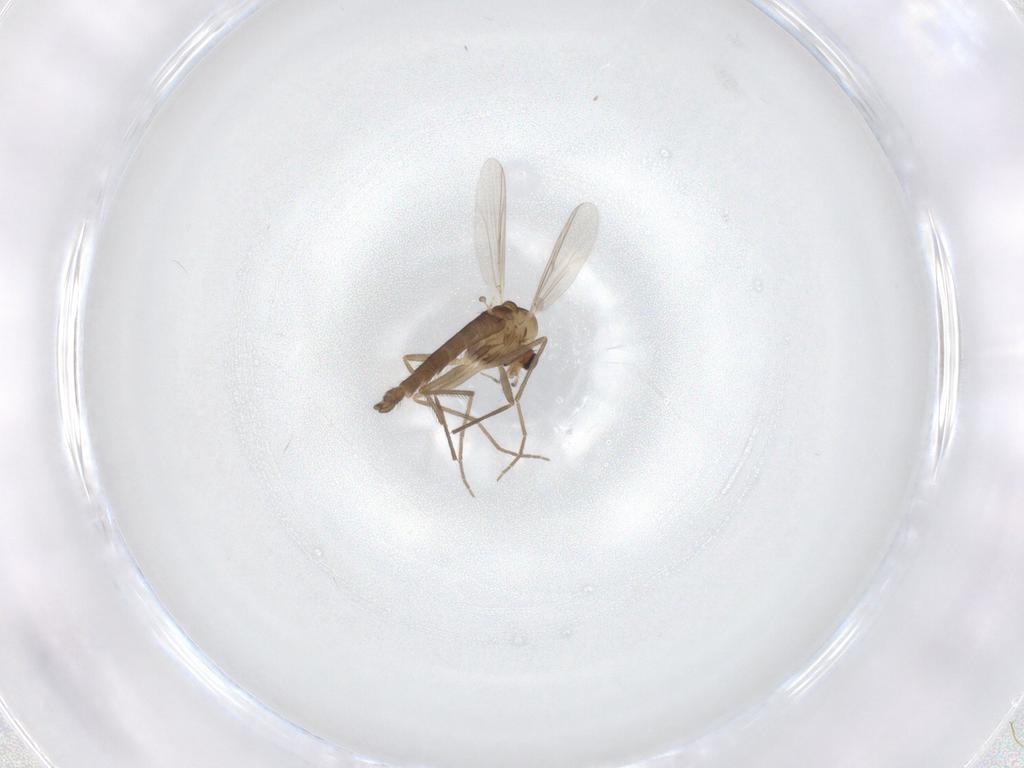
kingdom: Animalia
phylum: Arthropoda
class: Insecta
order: Diptera
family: Chironomidae
